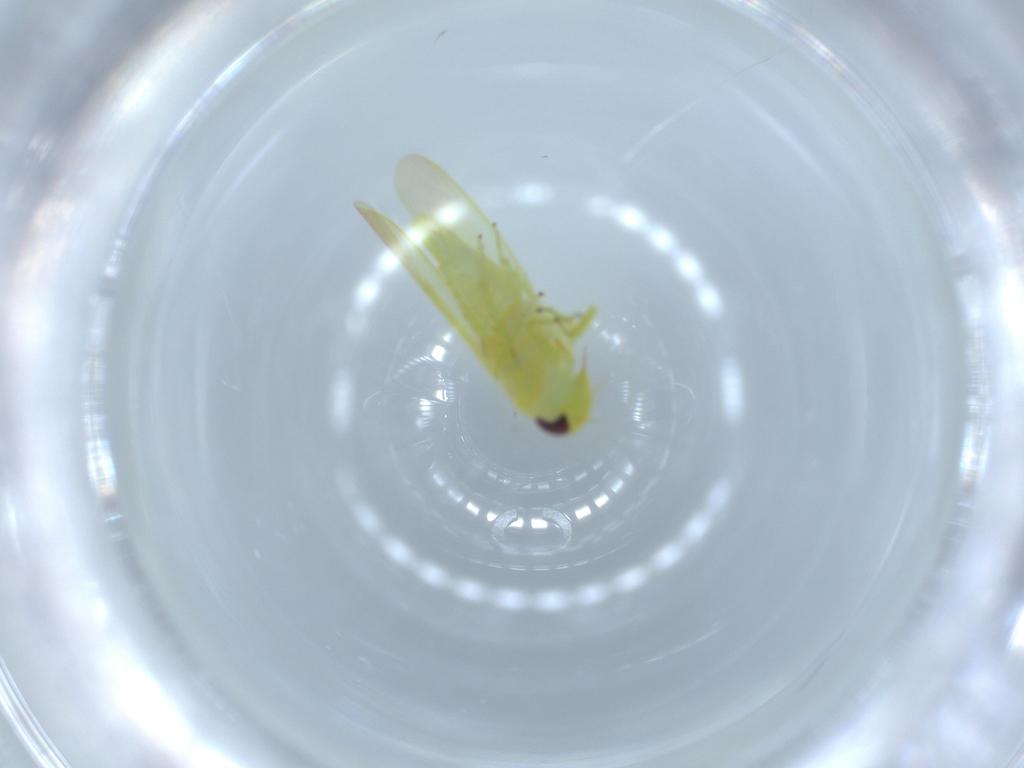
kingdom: Animalia
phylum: Arthropoda
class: Insecta
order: Hemiptera
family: Cicadellidae
